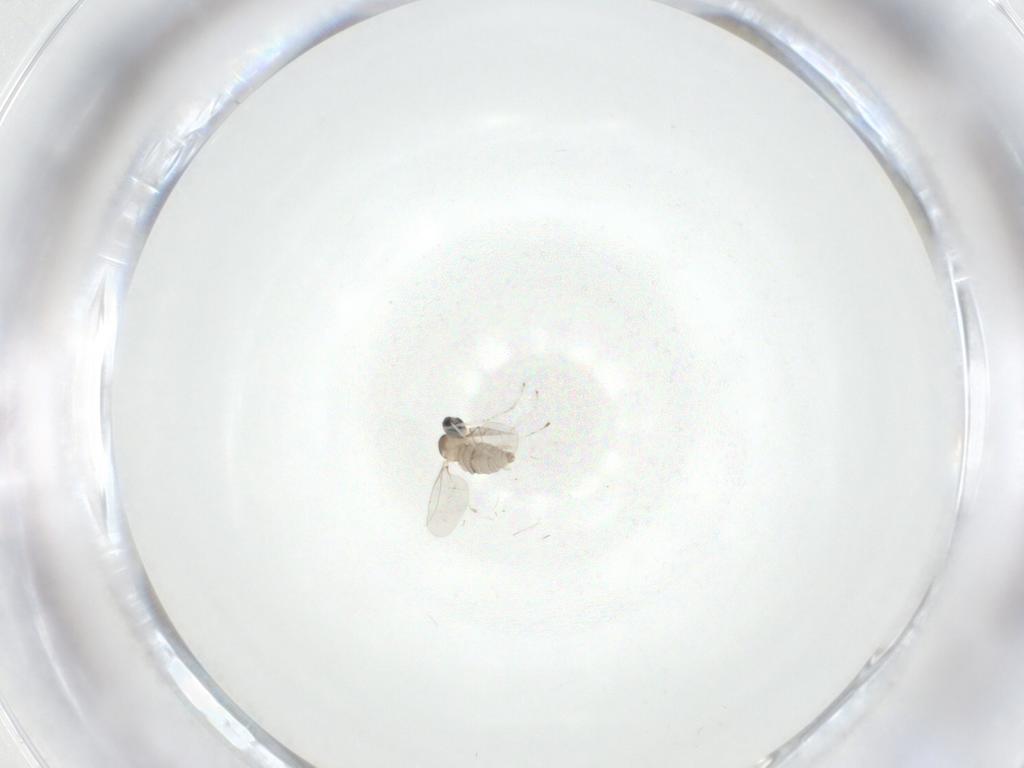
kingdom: Animalia
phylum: Arthropoda
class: Insecta
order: Diptera
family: Cecidomyiidae
